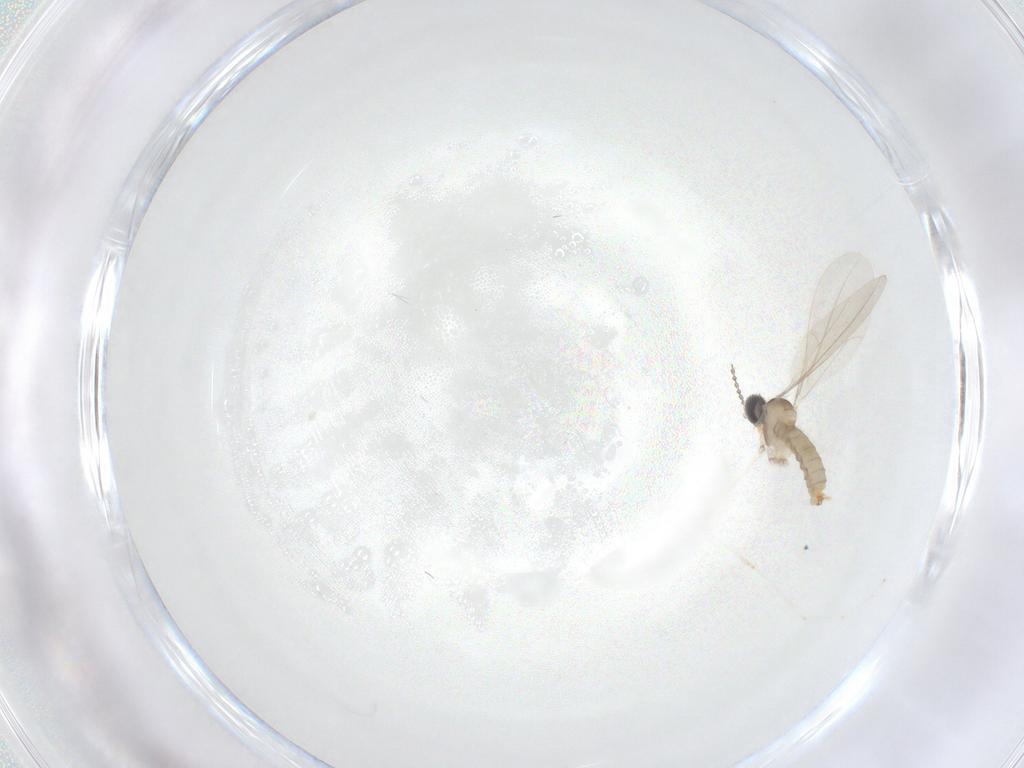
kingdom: Animalia
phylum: Arthropoda
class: Insecta
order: Diptera
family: Cecidomyiidae
